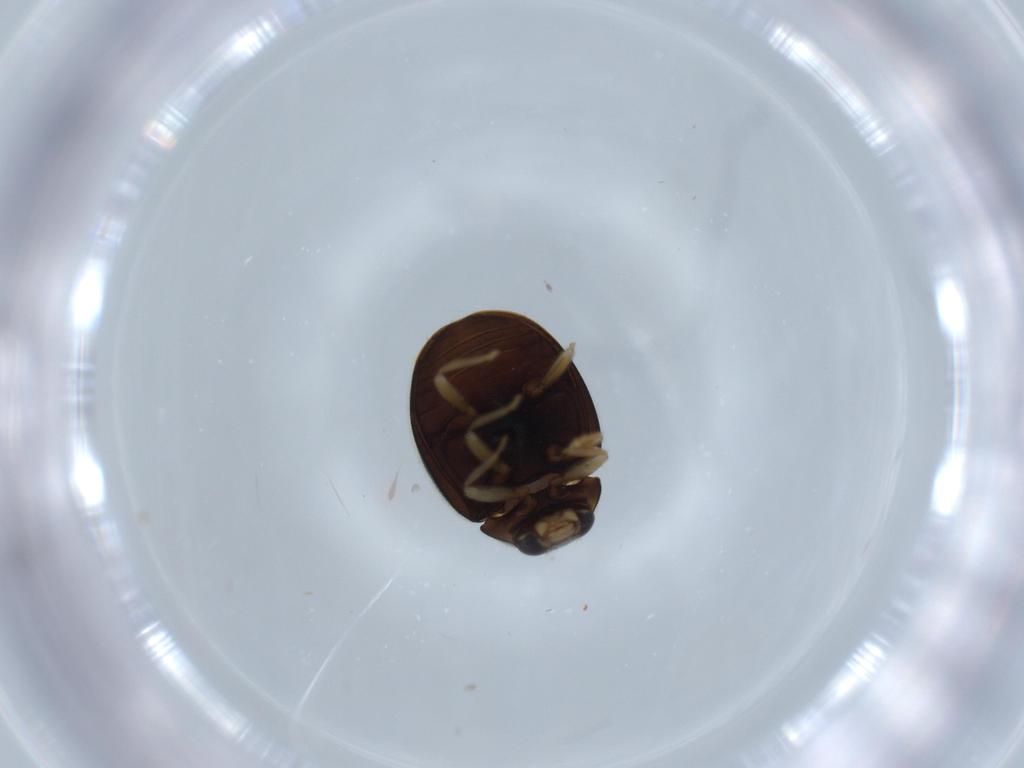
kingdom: Animalia
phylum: Arthropoda
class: Insecta
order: Coleoptera
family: Coccinellidae
